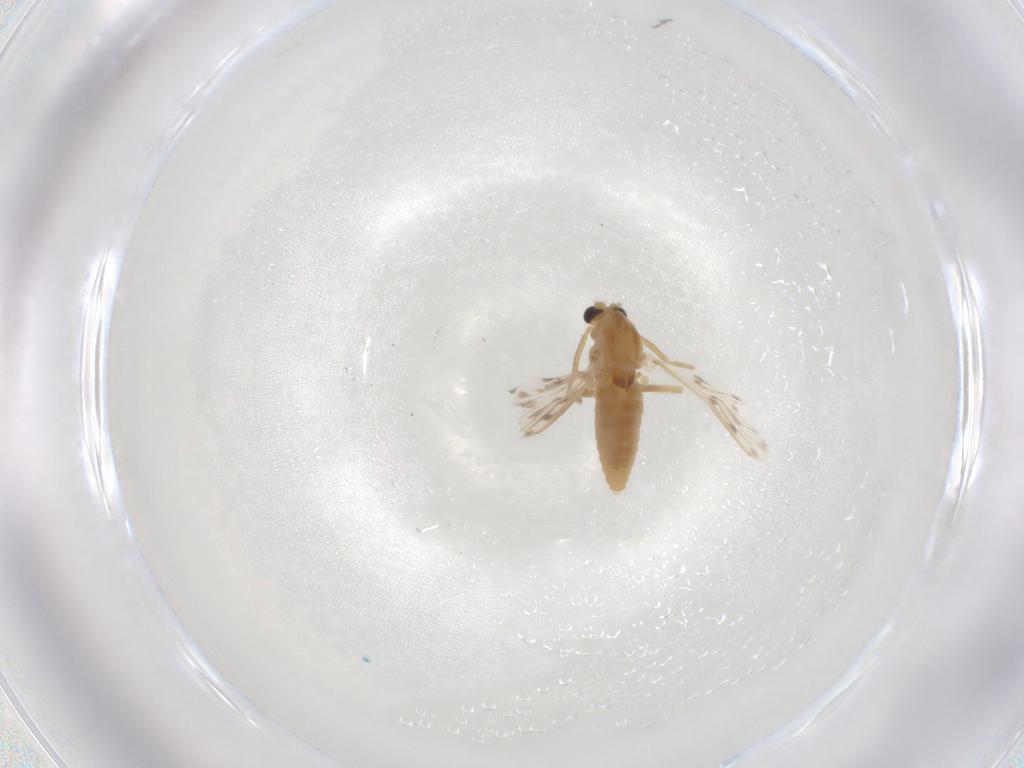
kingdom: Animalia
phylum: Arthropoda
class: Insecta
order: Diptera
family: Chironomidae
